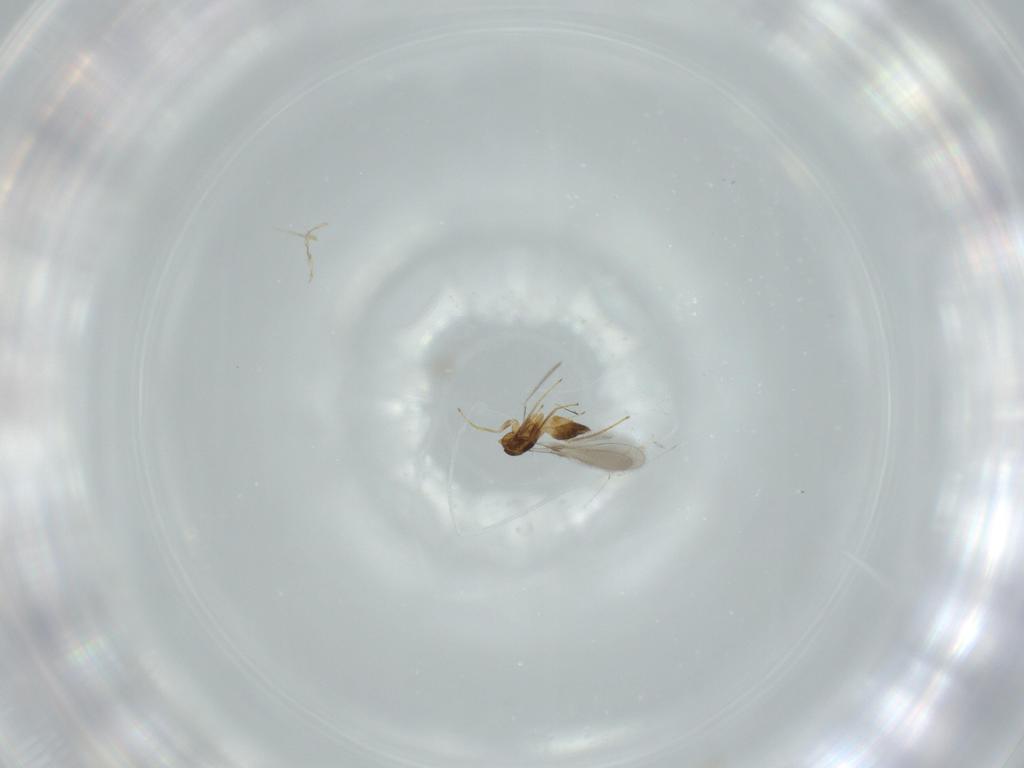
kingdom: Animalia
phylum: Arthropoda
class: Insecta
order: Hymenoptera
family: Mymaridae
